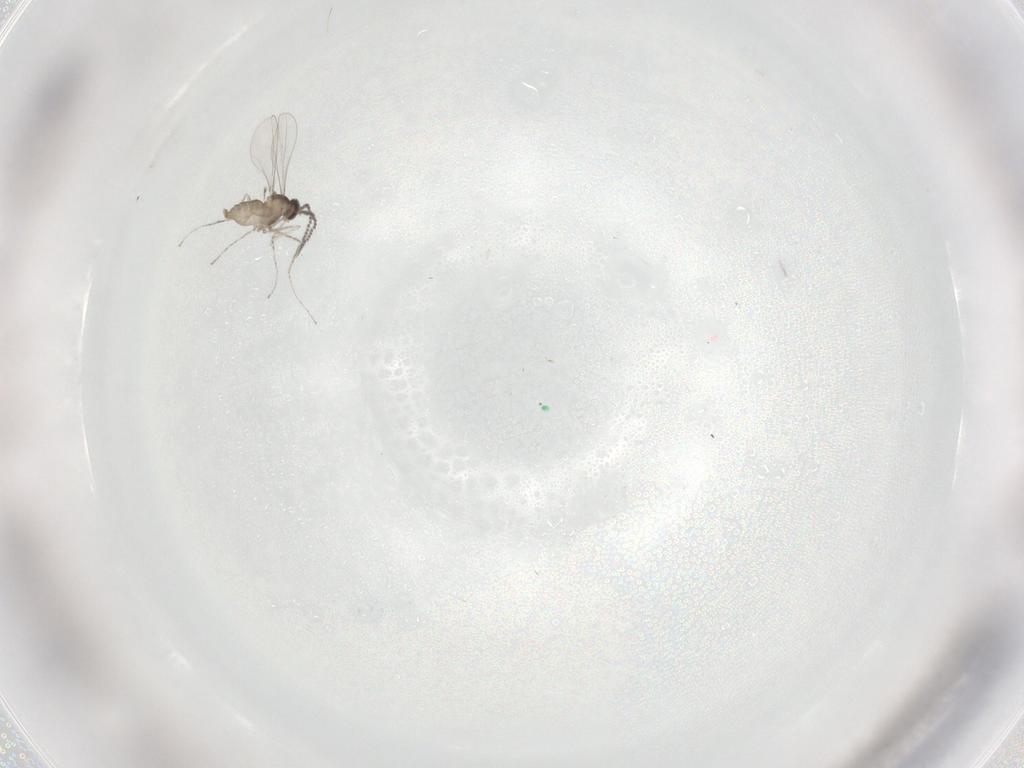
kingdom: Animalia
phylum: Arthropoda
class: Insecta
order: Diptera
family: Cecidomyiidae
